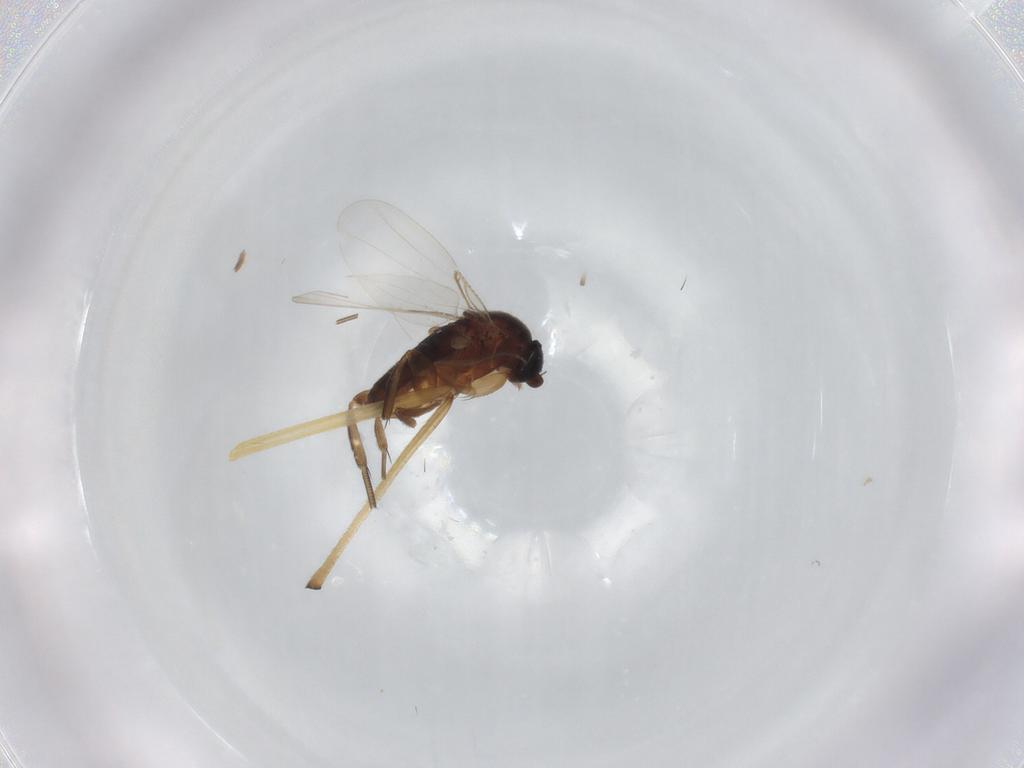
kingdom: Animalia
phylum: Arthropoda
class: Insecta
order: Diptera
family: Phoridae
